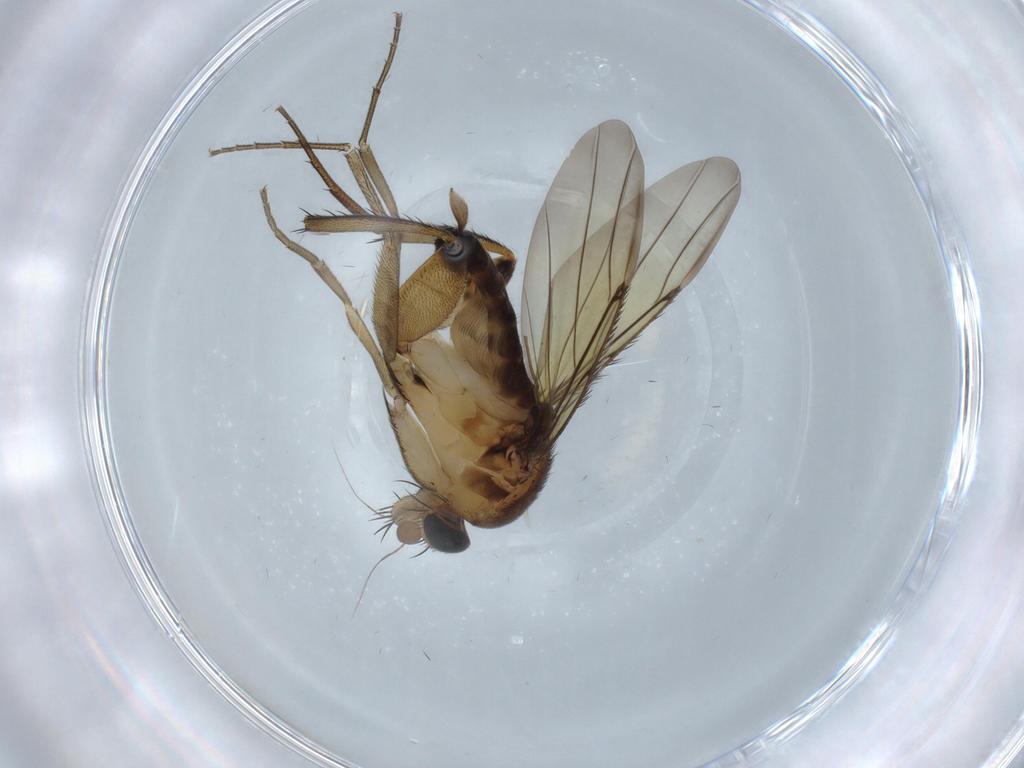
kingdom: Animalia
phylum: Arthropoda
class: Insecta
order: Diptera
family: Phoridae
